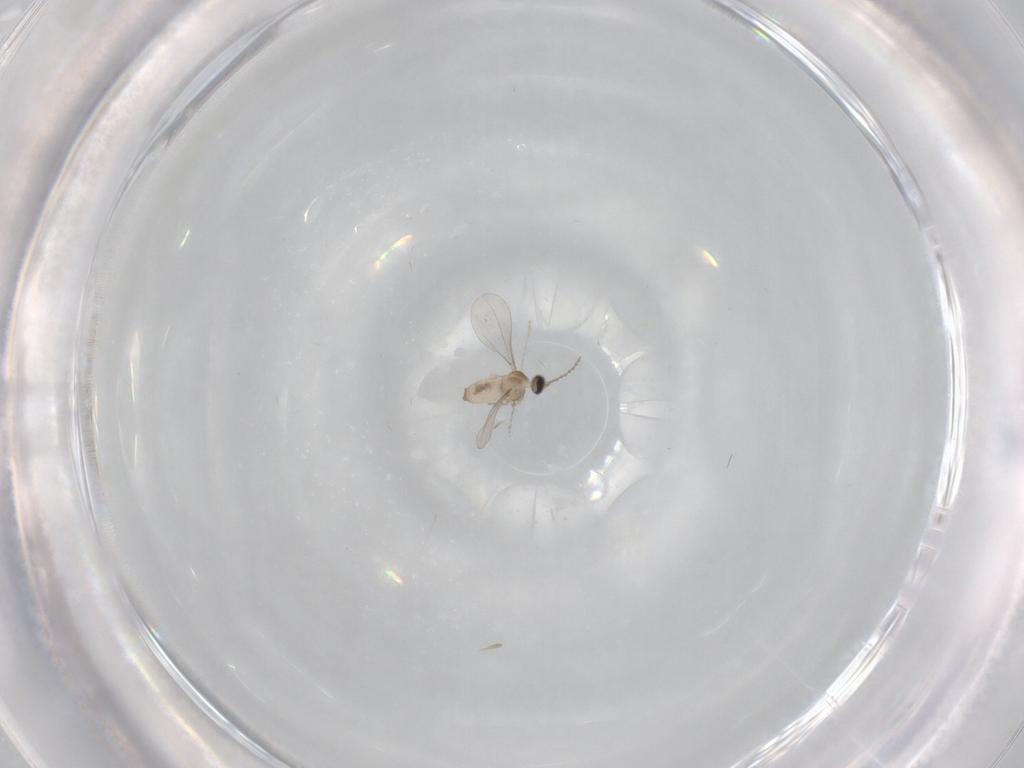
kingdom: Animalia
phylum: Arthropoda
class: Insecta
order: Diptera
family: Cecidomyiidae
